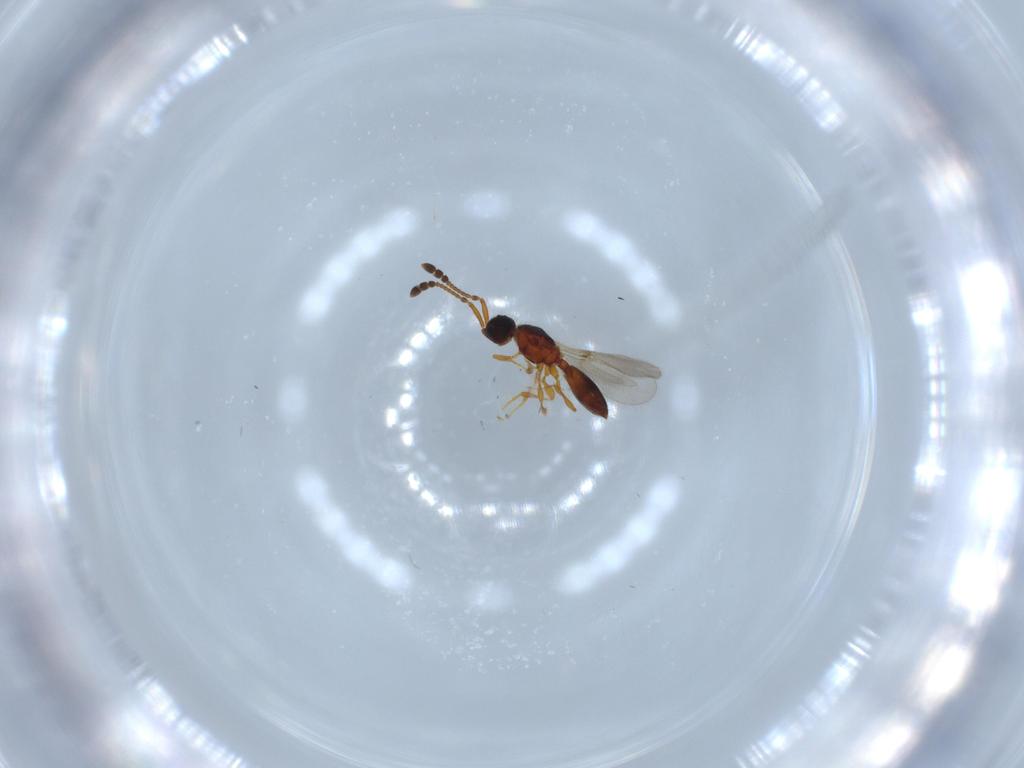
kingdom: Animalia
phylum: Arthropoda
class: Insecta
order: Hymenoptera
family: Diapriidae
